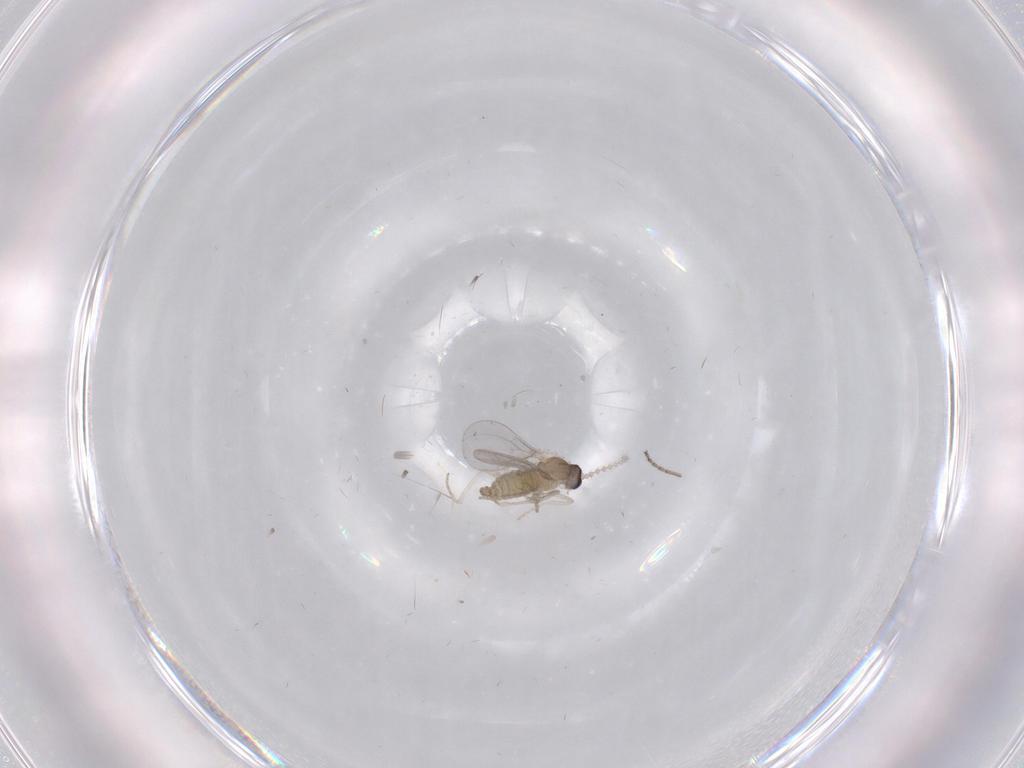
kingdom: Animalia
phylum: Arthropoda
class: Insecta
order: Diptera
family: Cecidomyiidae
